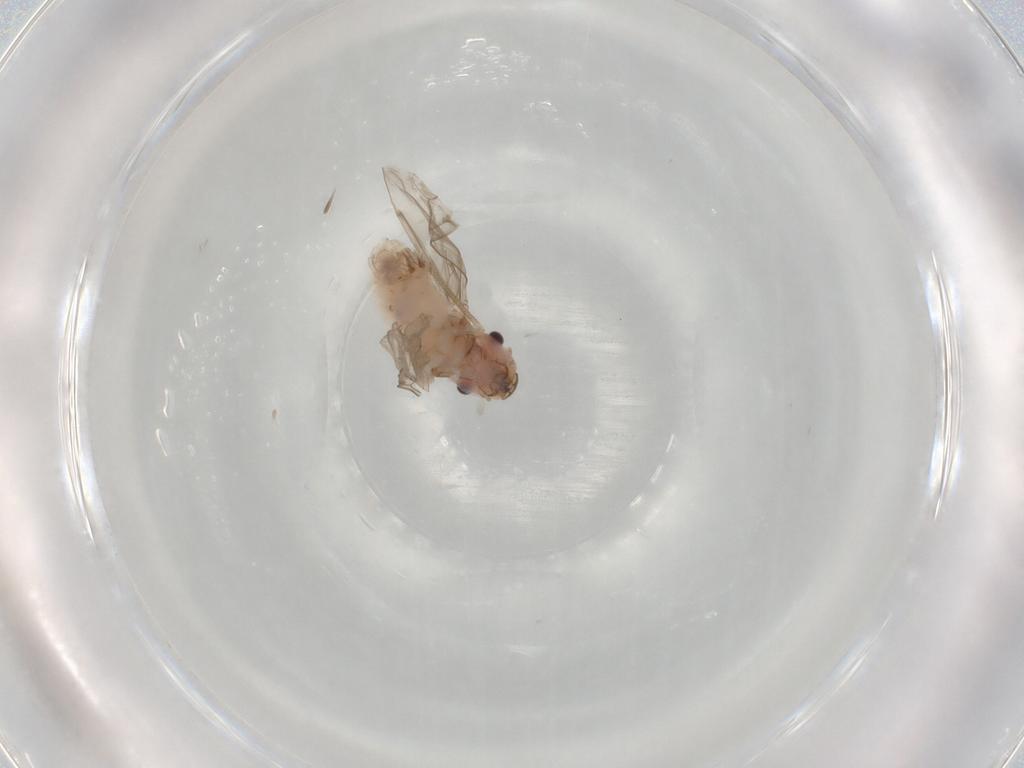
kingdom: Animalia
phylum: Arthropoda
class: Insecta
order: Psocodea
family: Peripsocidae
